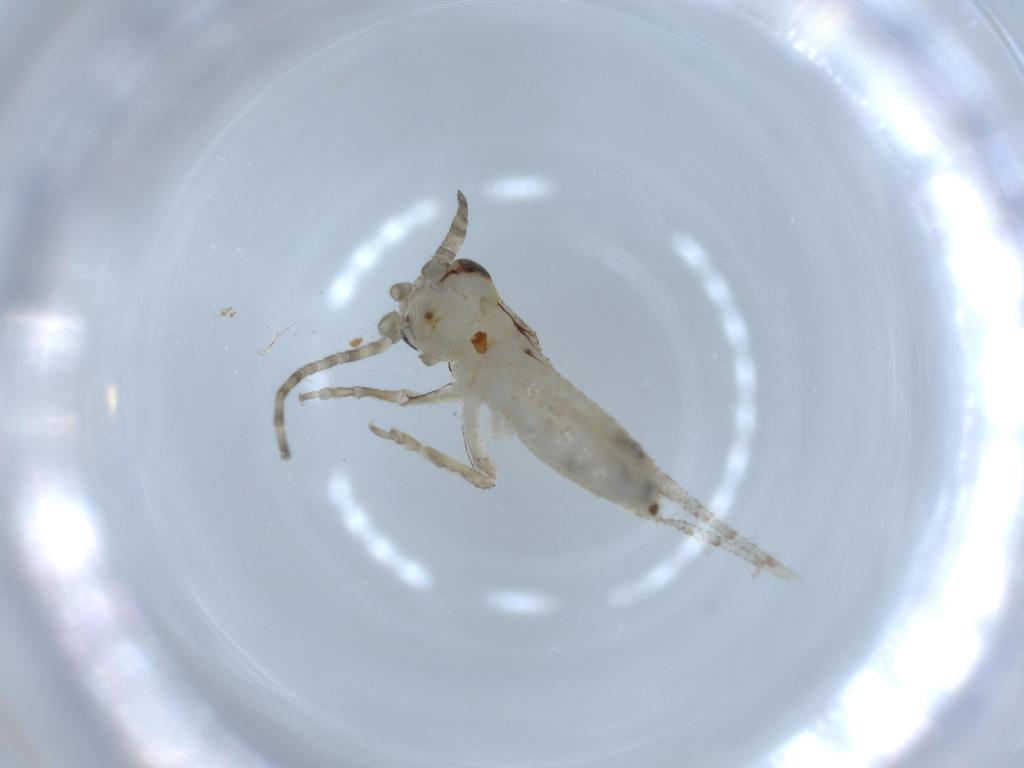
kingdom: Animalia
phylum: Arthropoda
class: Insecta
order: Orthoptera
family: Gryllidae
